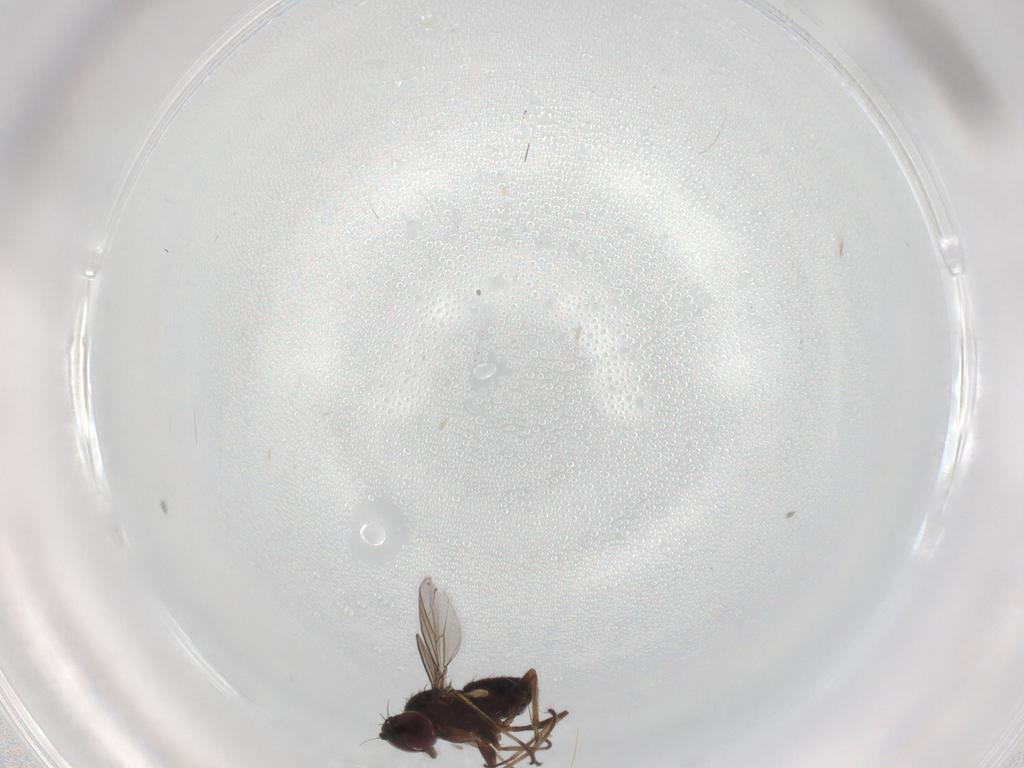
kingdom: Animalia
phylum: Arthropoda
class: Insecta
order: Diptera
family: Dolichopodidae
